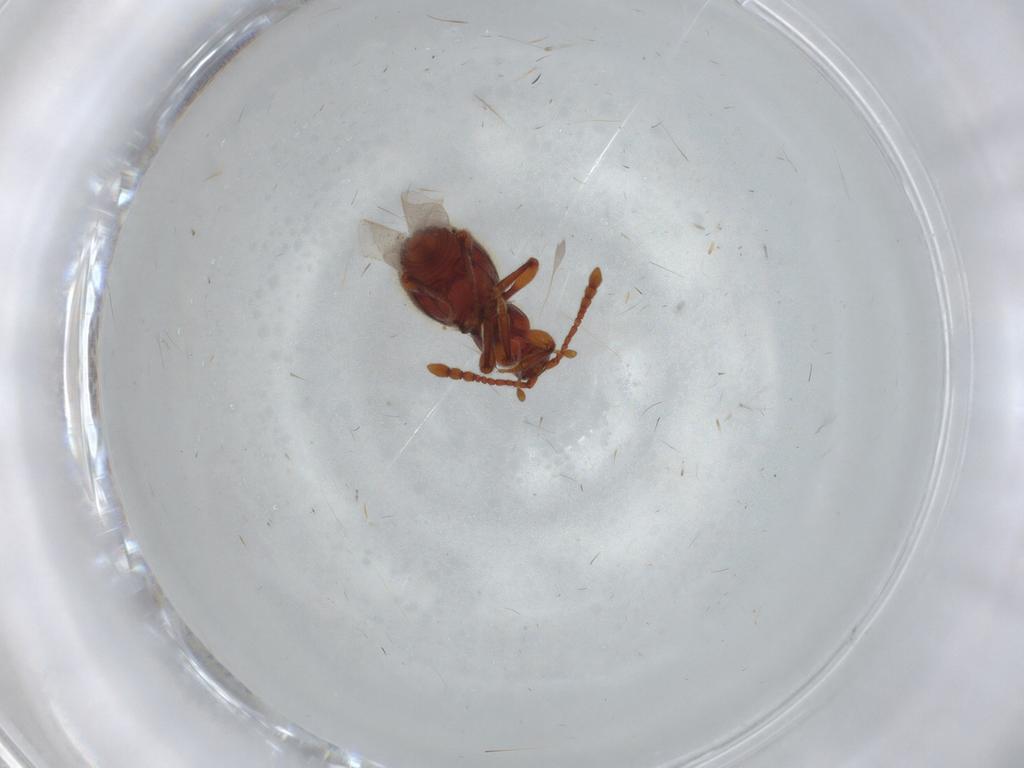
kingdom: Animalia
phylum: Arthropoda
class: Insecta
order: Coleoptera
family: Staphylinidae
